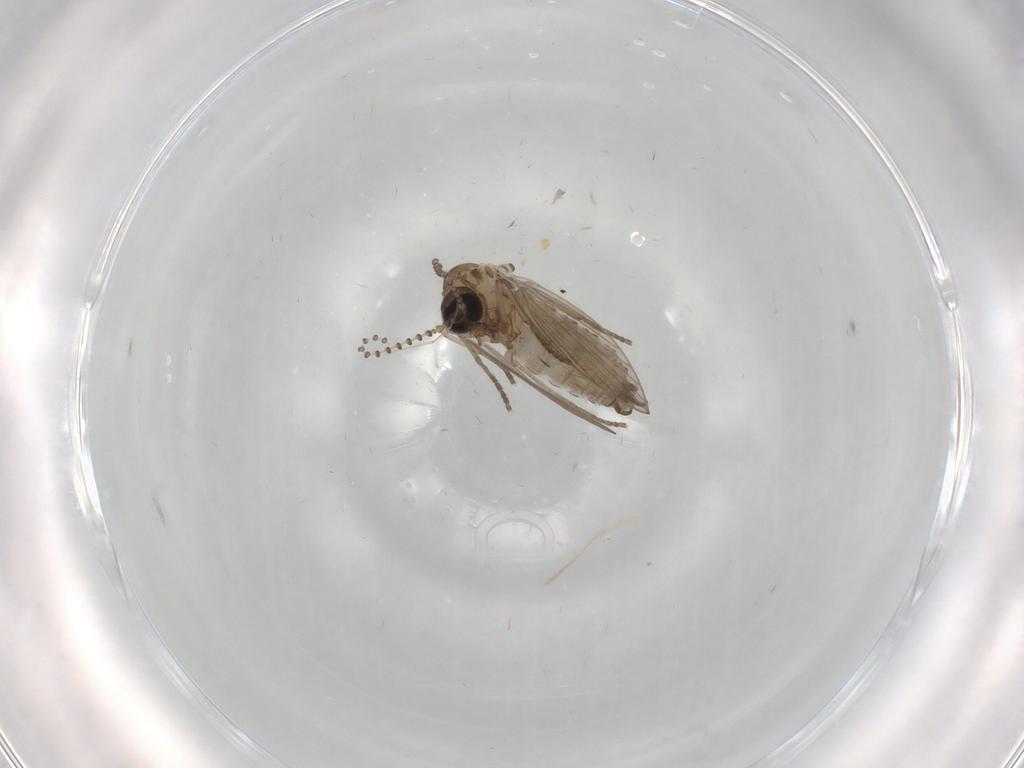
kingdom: Animalia
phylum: Arthropoda
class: Insecta
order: Diptera
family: Psychodidae
